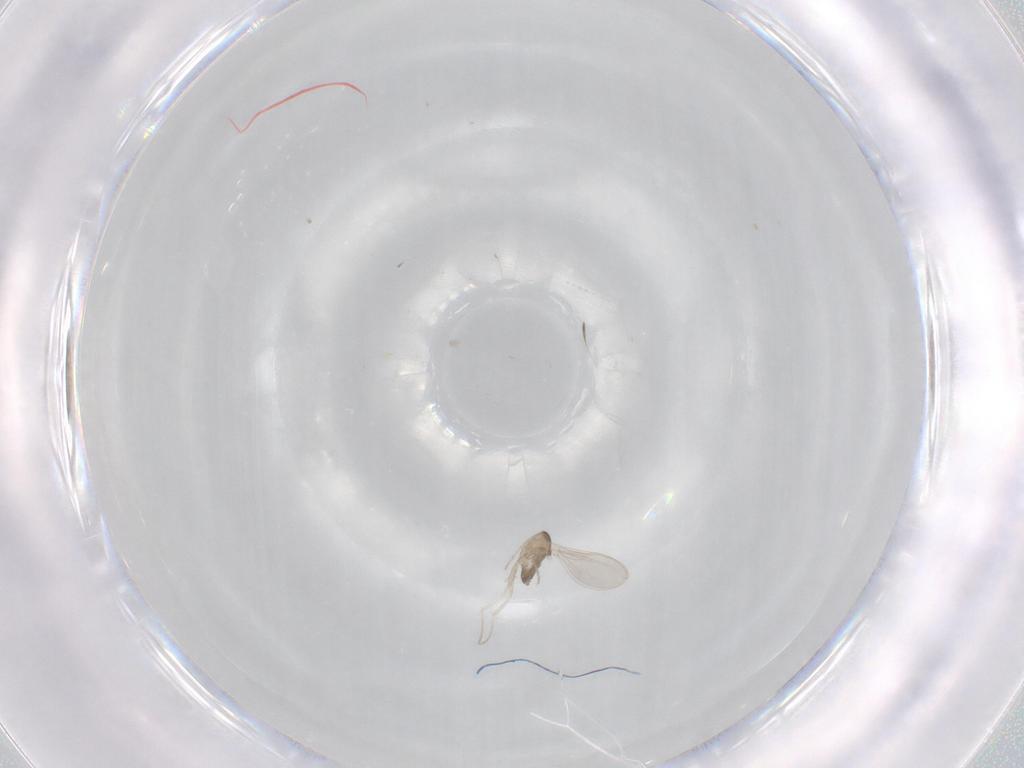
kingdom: Animalia
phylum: Arthropoda
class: Insecta
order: Diptera
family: Cecidomyiidae
